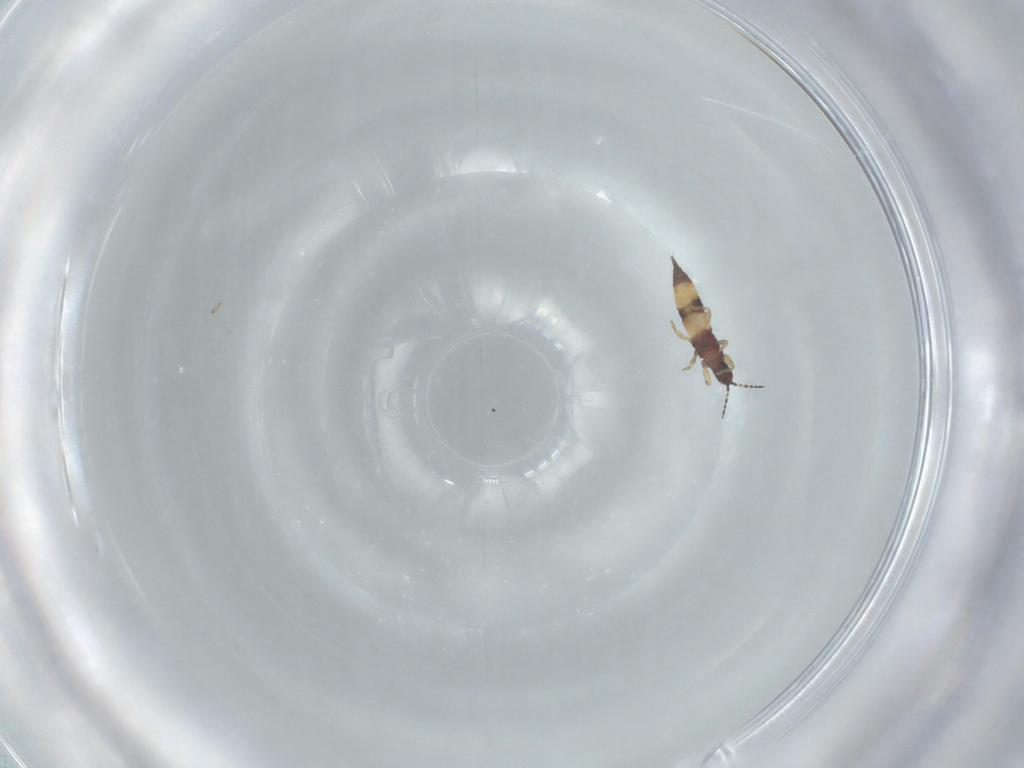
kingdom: Animalia
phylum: Arthropoda
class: Insecta
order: Thysanoptera
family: Phlaeothripidae
